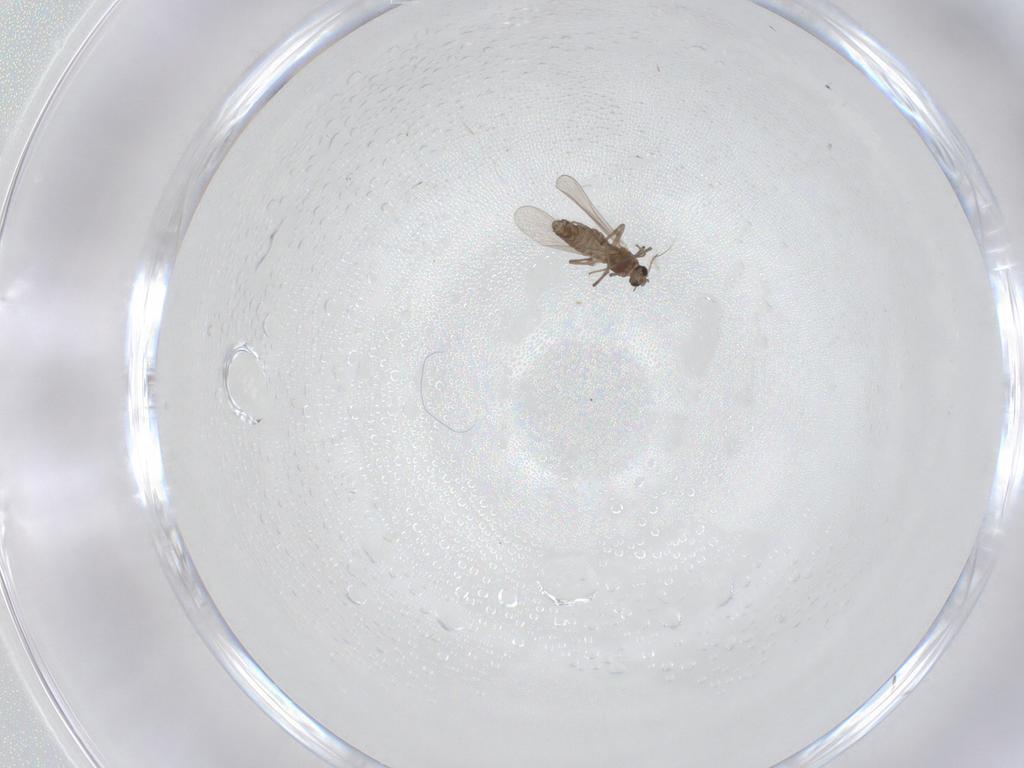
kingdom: Animalia
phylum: Arthropoda
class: Insecta
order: Diptera
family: Chironomidae
